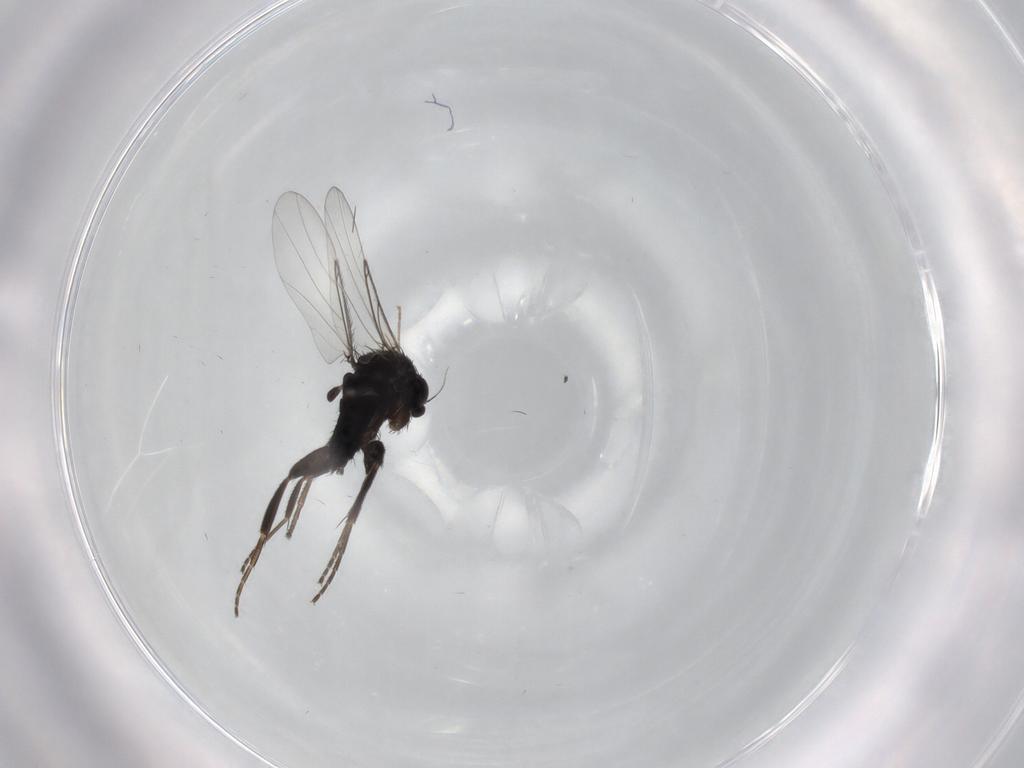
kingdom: Animalia
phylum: Arthropoda
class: Insecta
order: Diptera
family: Phoridae
